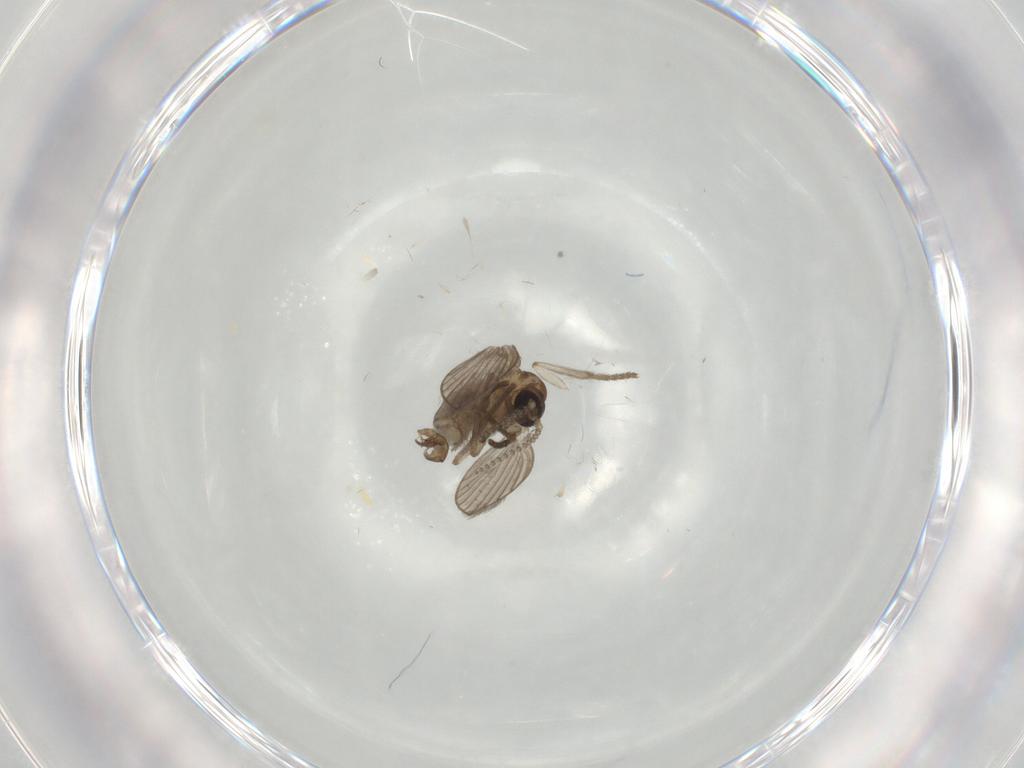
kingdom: Animalia
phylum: Arthropoda
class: Insecta
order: Diptera
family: Psychodidae
